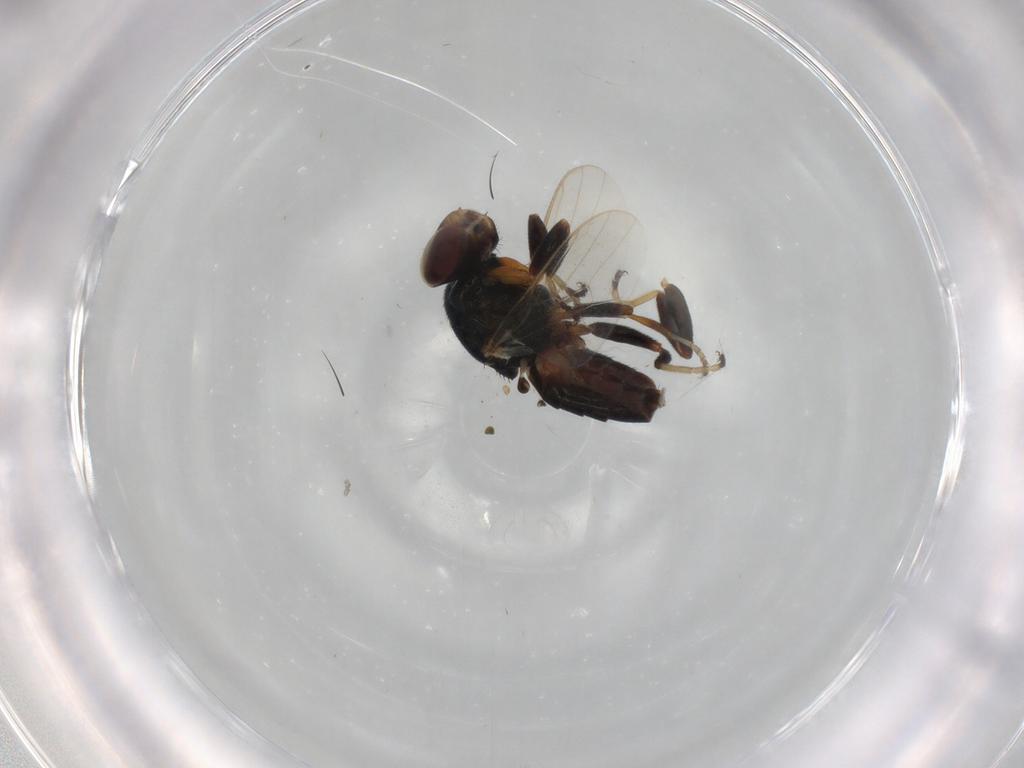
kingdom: Animalia
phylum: Arthropoda
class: Insecta
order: Diptera
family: Chloropidae
